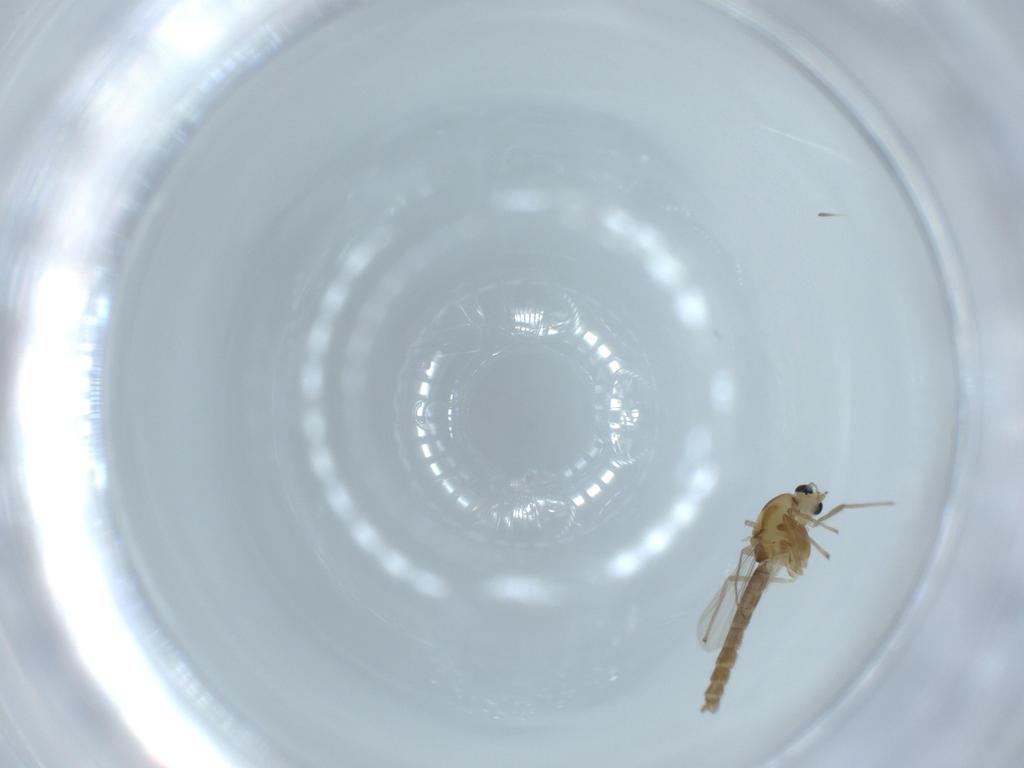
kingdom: Animalia
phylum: Arthropoda
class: Insecta
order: Diptera
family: Chironomidae
